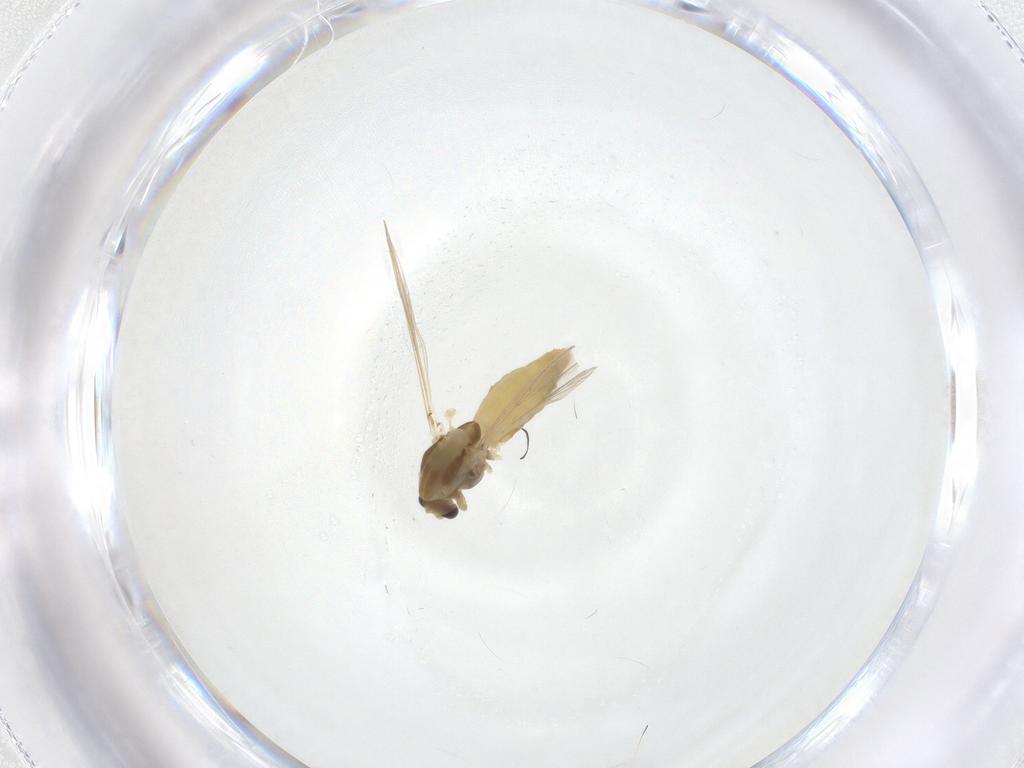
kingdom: Animalia
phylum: Arthropoda
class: Insecta
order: Diptera
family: Chironomidae
